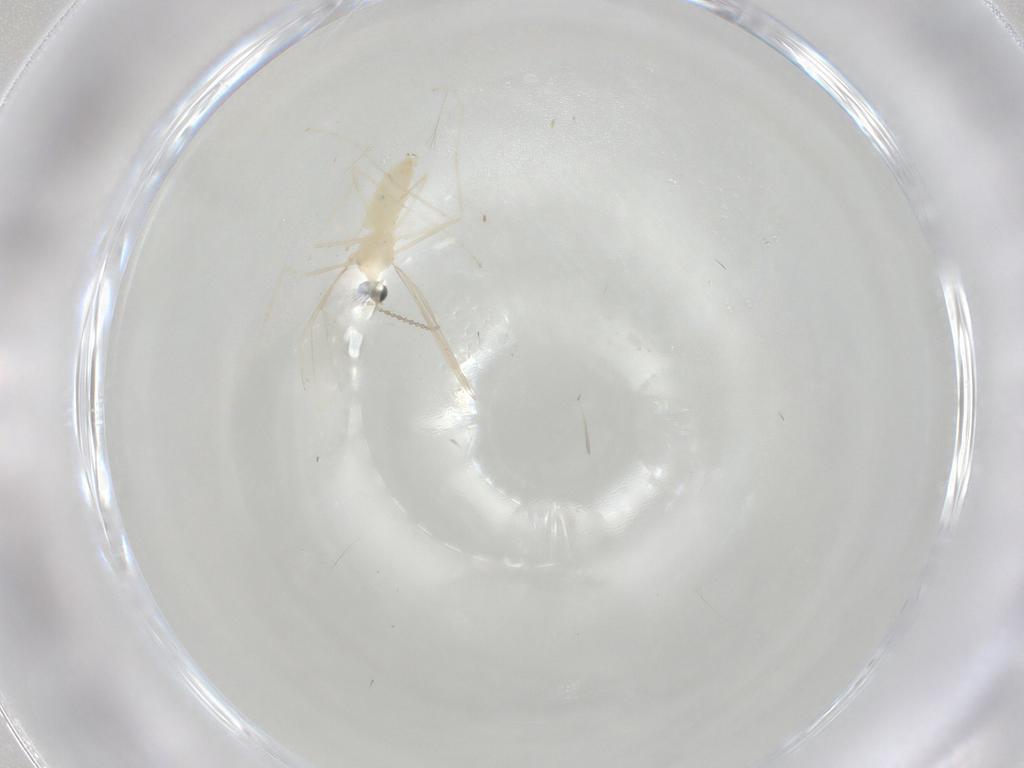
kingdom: Animalia
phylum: Arthropoda
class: Insecta
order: Diptera
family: Cecidomyiidae
